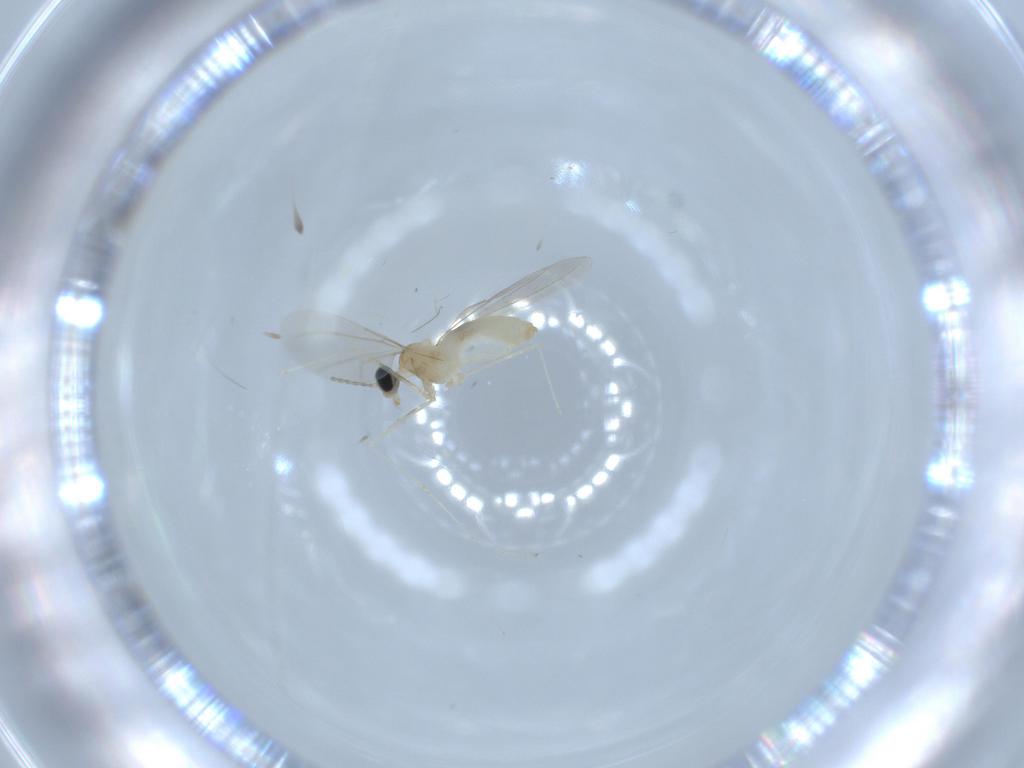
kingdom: Animalia
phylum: Arthropoda
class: Insecta
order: Diptera
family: Cecidomyiidae
